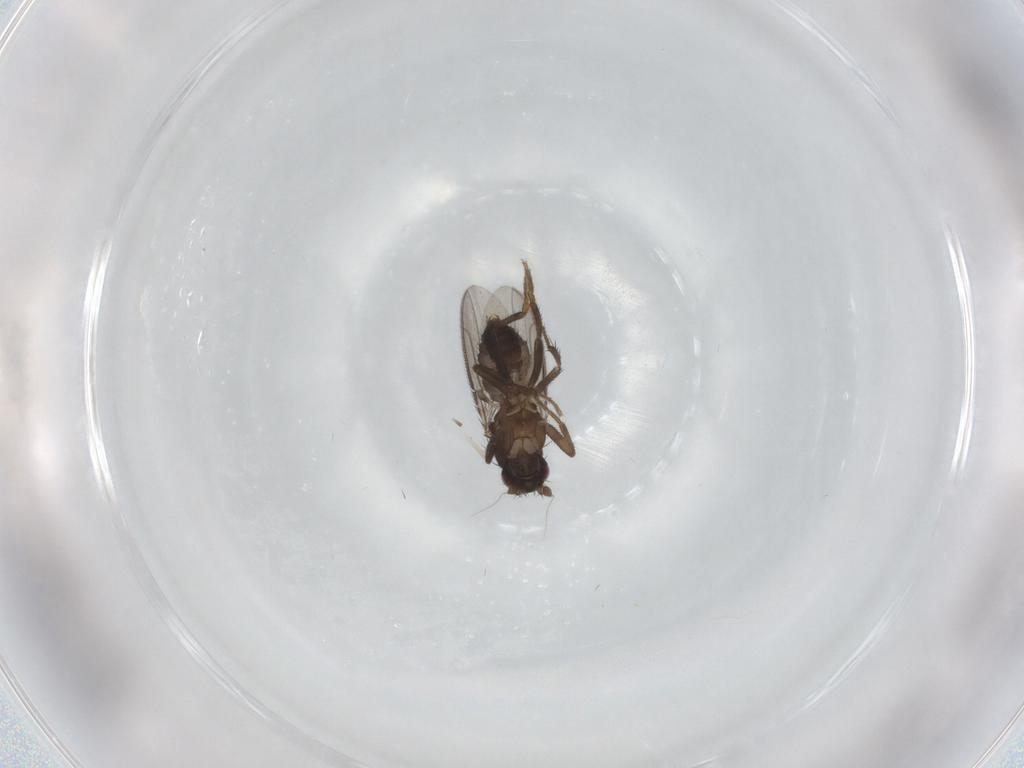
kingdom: Animalia
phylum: Arthropoda
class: Insecta
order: Diptera
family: Sphaeroceridae
